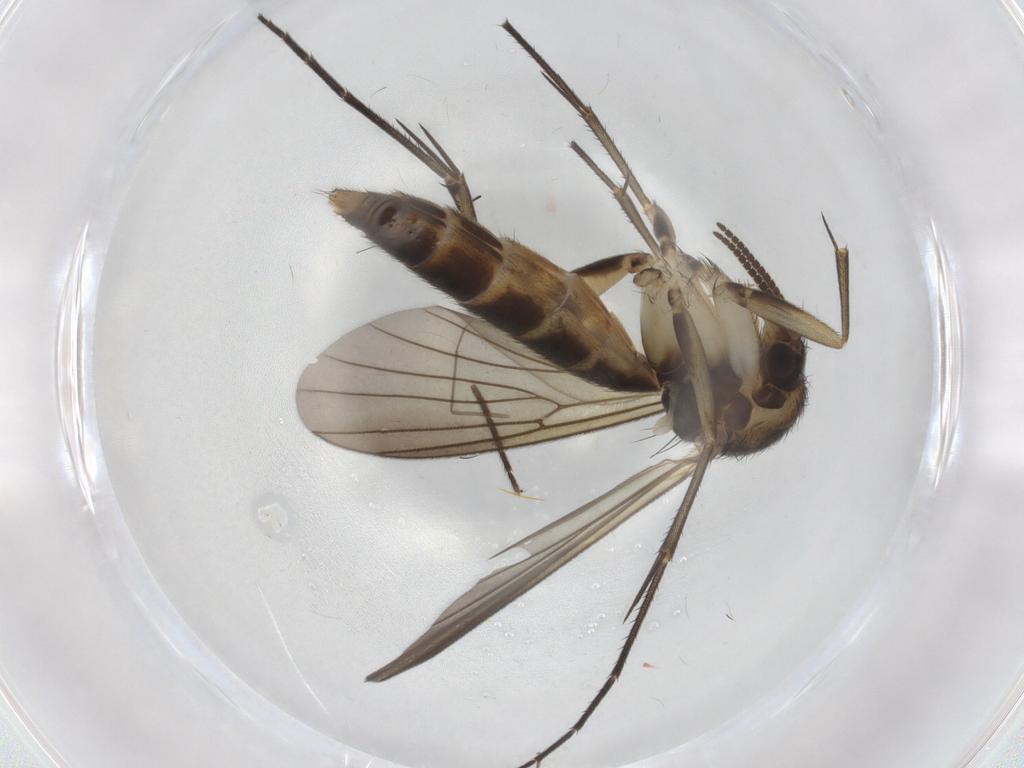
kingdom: Animalia
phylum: Arthropoda
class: Insecta
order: Diptera
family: Mycetophilidae
